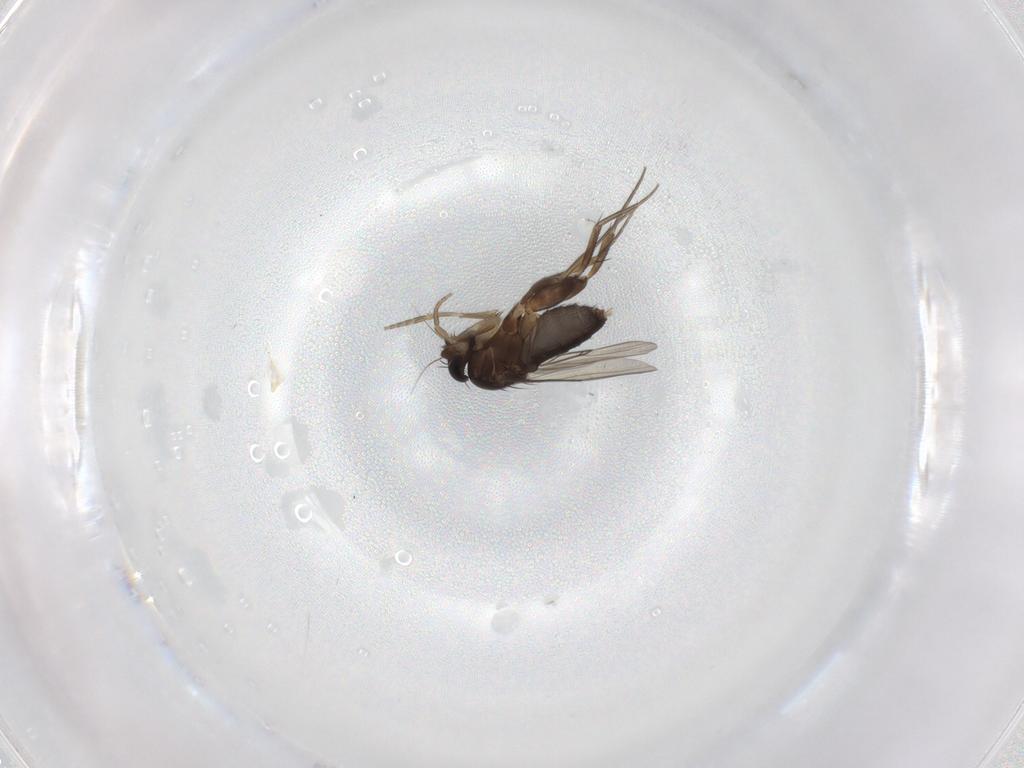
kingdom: Animalia
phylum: Arthropoda
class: Insecta
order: Diptera
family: Phoridae
